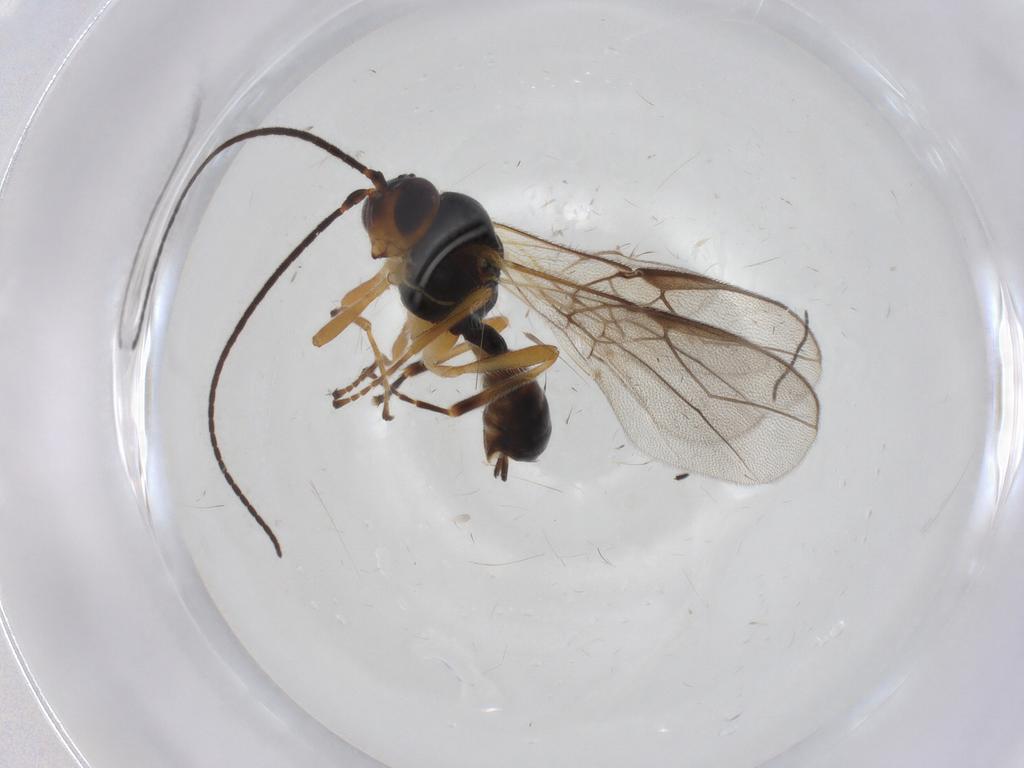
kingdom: Animalia
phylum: Arthropoda
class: Insecta
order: Hymenoptera
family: Braconidae
